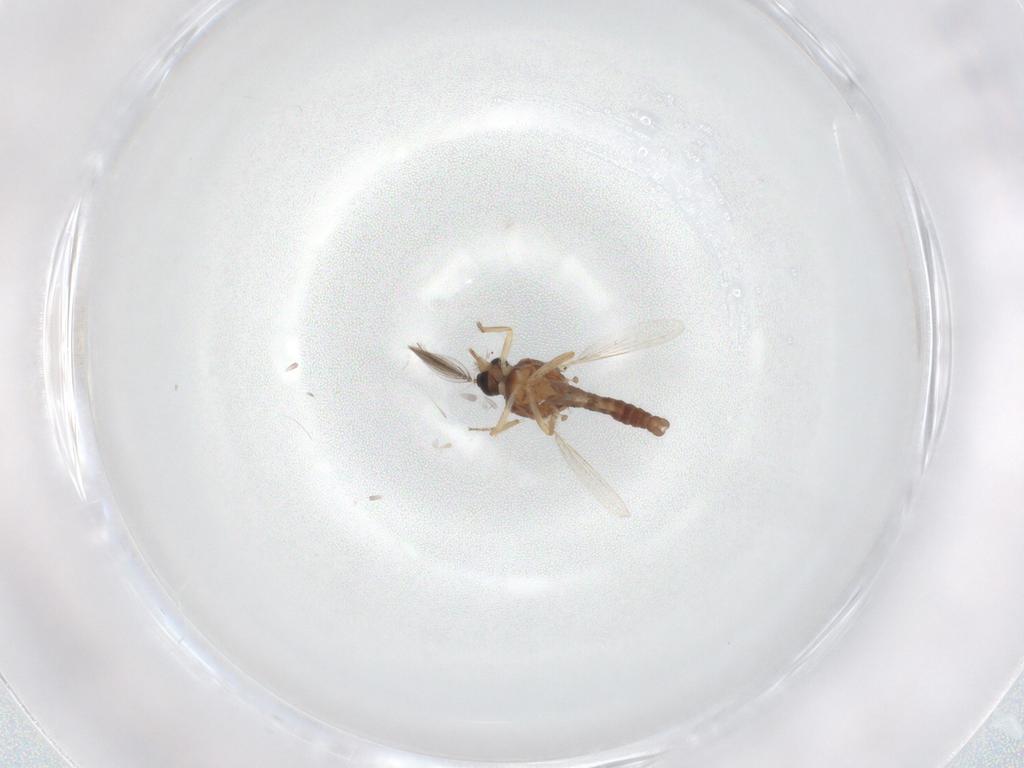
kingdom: Animalia
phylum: Arthropoda
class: Insecta
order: Diptera
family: Ceratopogonidae
